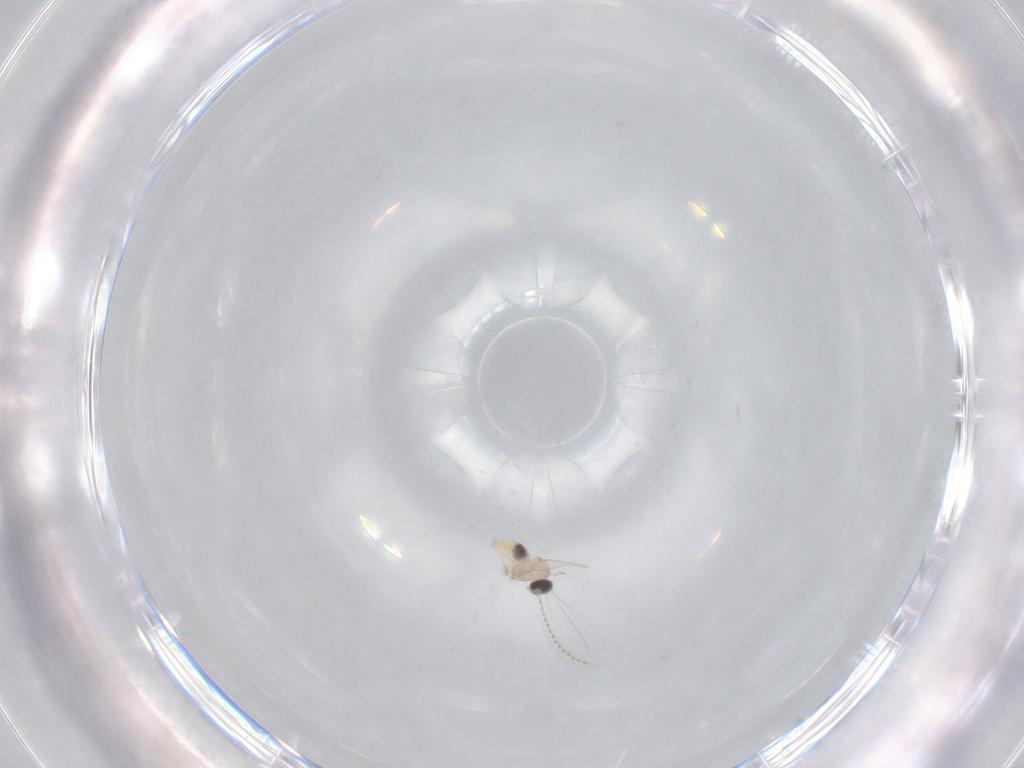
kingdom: Animalia
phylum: Arthropoda
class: Insecta
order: Diptera
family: Cecidomyiidae
